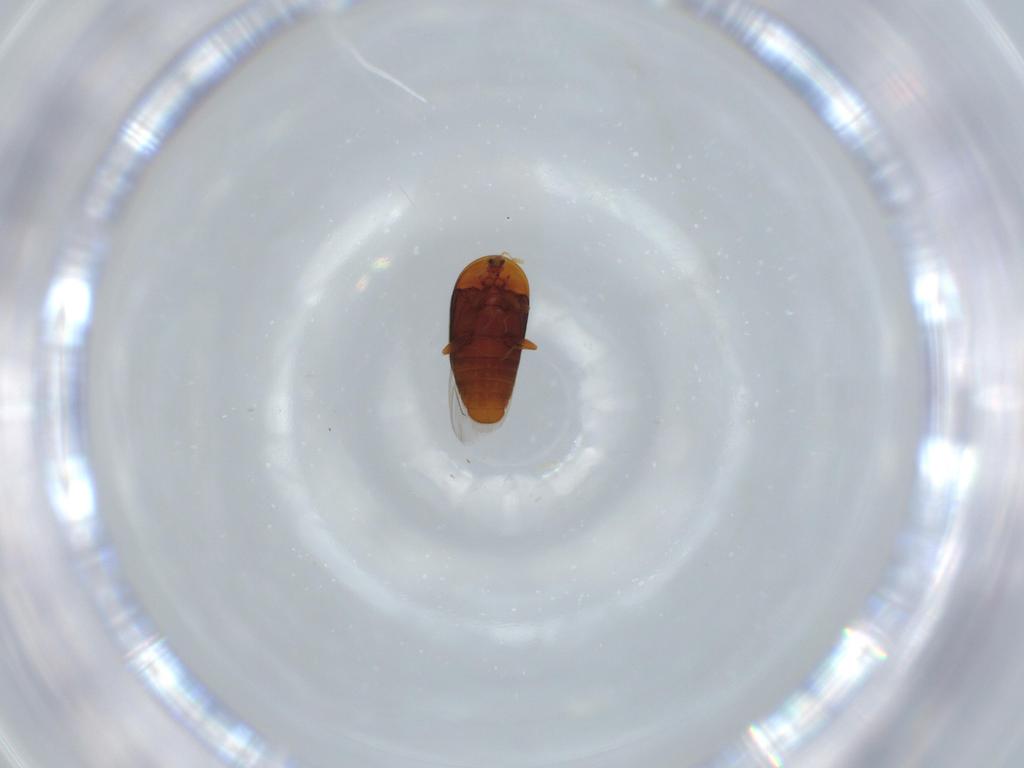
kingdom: Animalia
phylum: Arthropoda
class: Insecta
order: Coleoptera
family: Corylophidae
